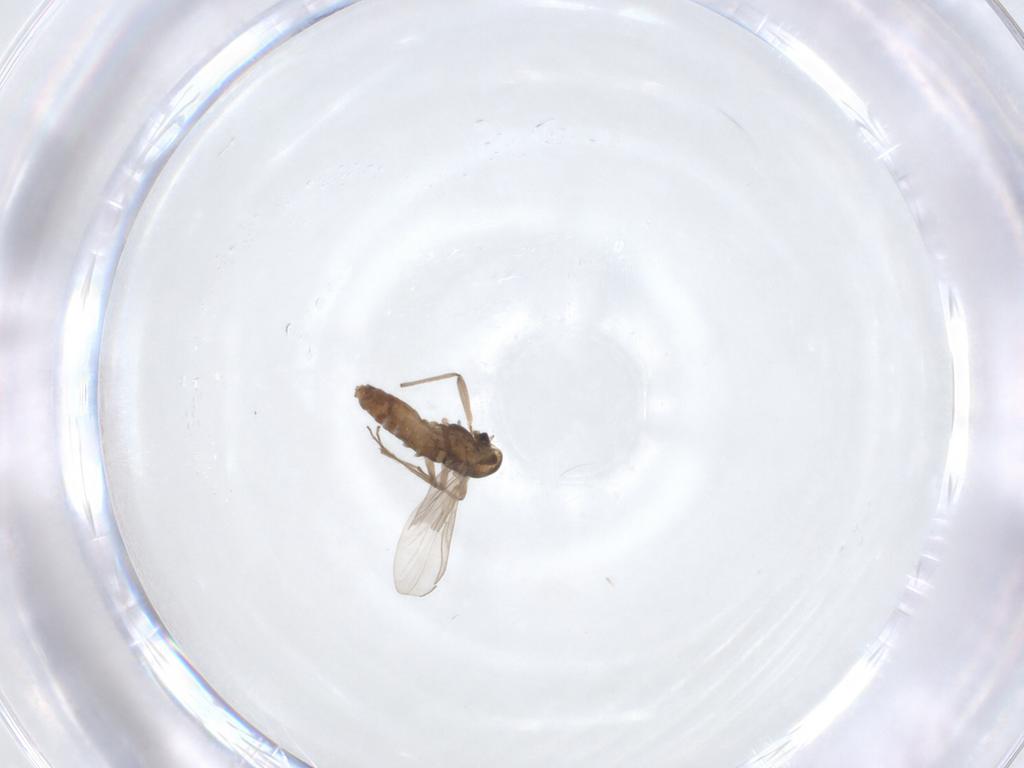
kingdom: Animalia
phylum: Arthropoda
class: Insecta
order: Diptera
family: Chironomidae
